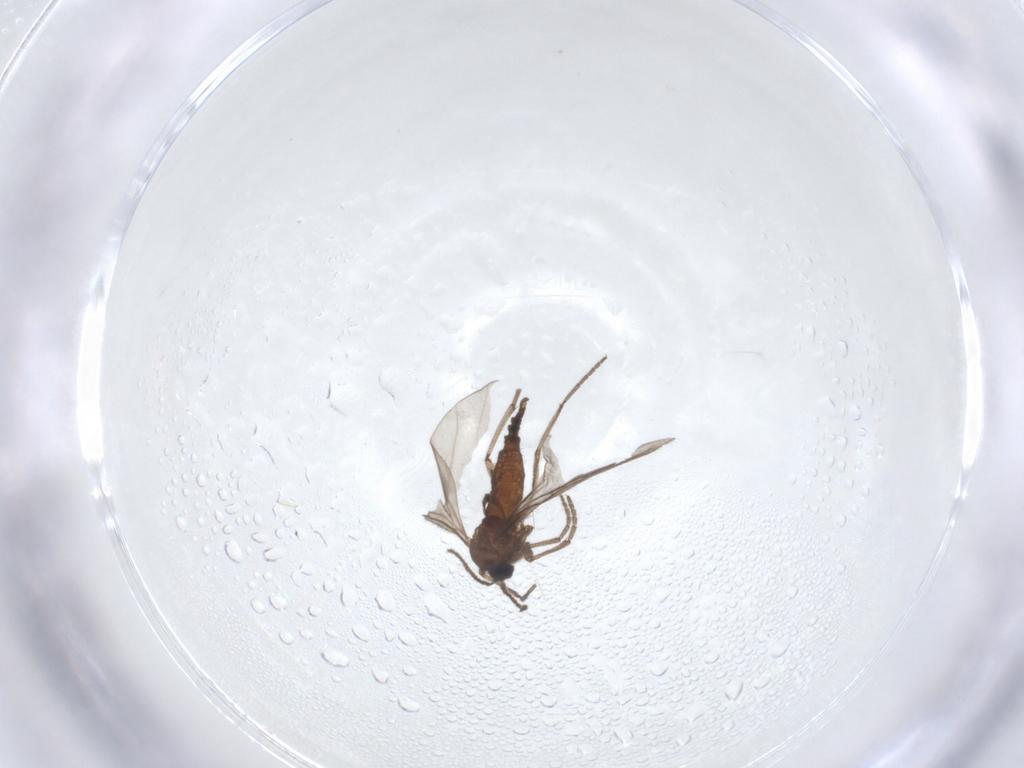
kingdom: Animalia
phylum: Arthropoda
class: Insecta
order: Diptera
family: Sciaridae
